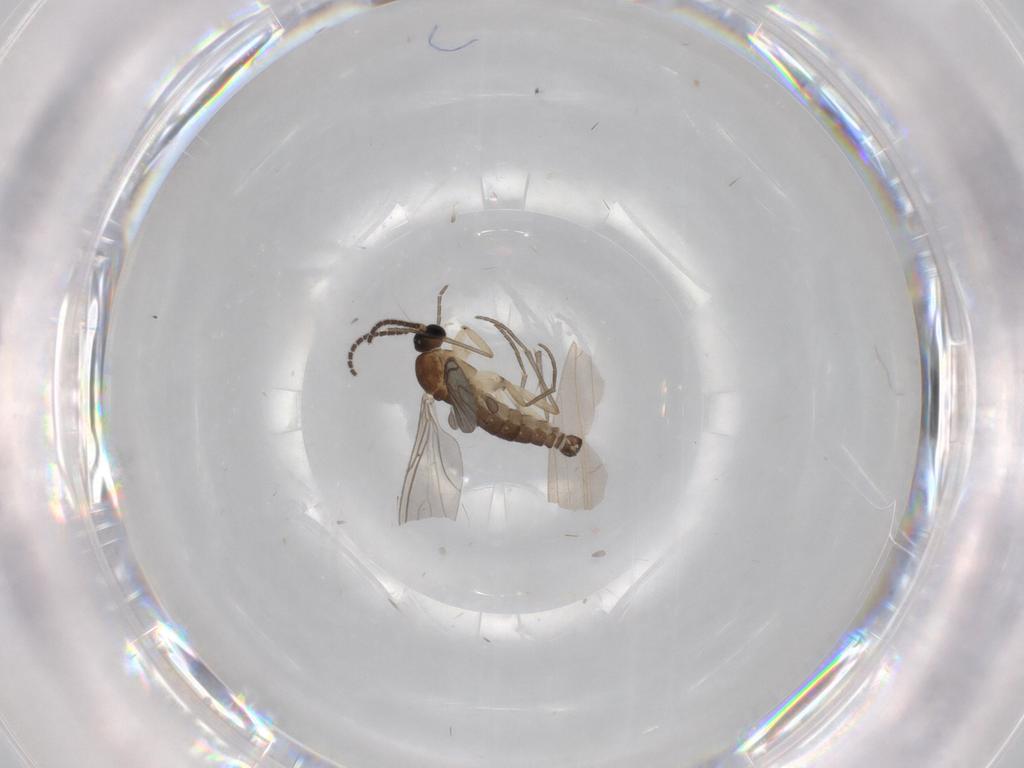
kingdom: Animalia
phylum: Arthropoda
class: Insecta
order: Diptera
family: Sciaridae
